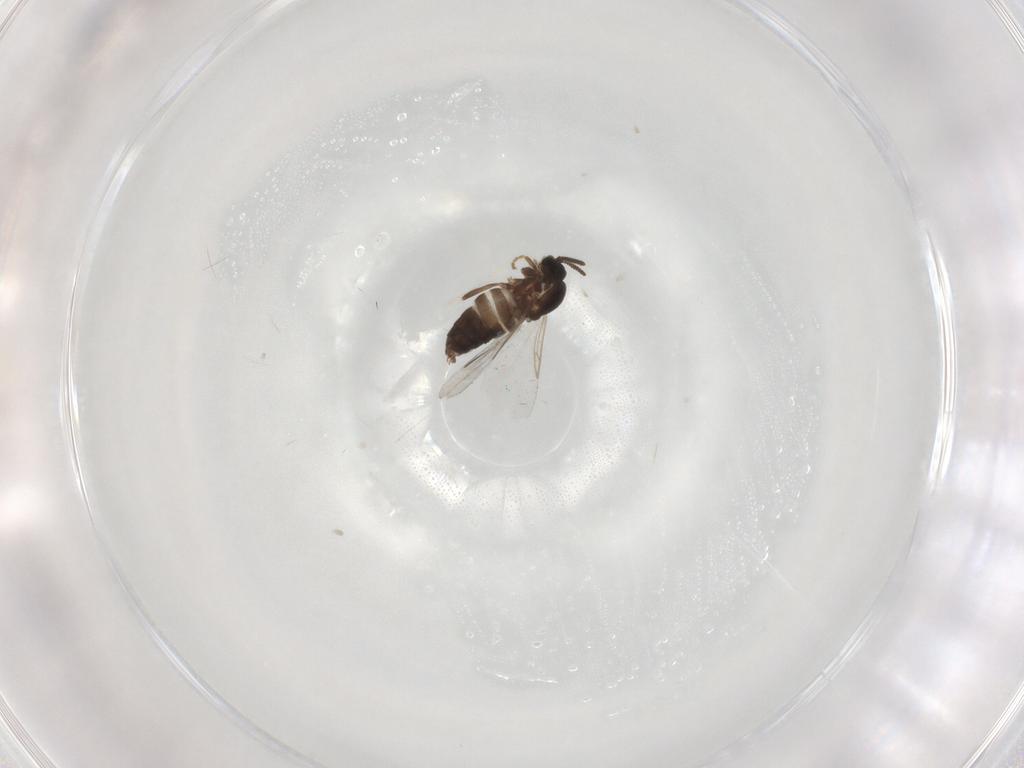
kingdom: Animalia
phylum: Arthropoda
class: Insecta
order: Diptera
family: Scatopsidae
